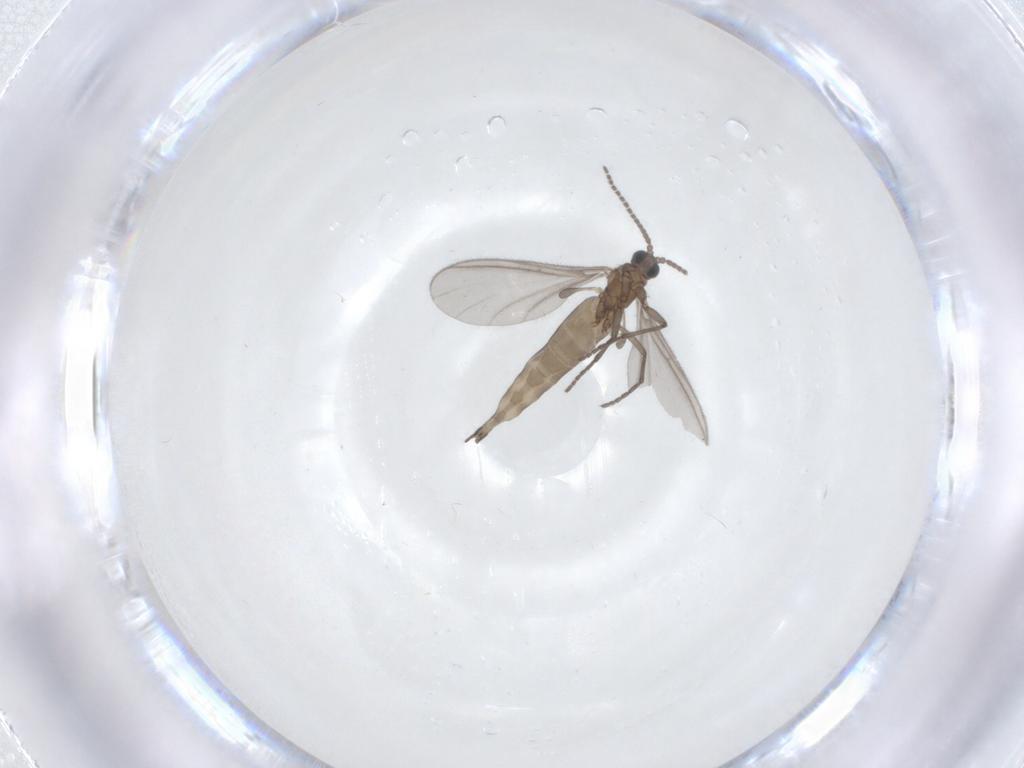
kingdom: Animalia
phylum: Arthropoda
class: Insecta
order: Diptera
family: Sciaridae
